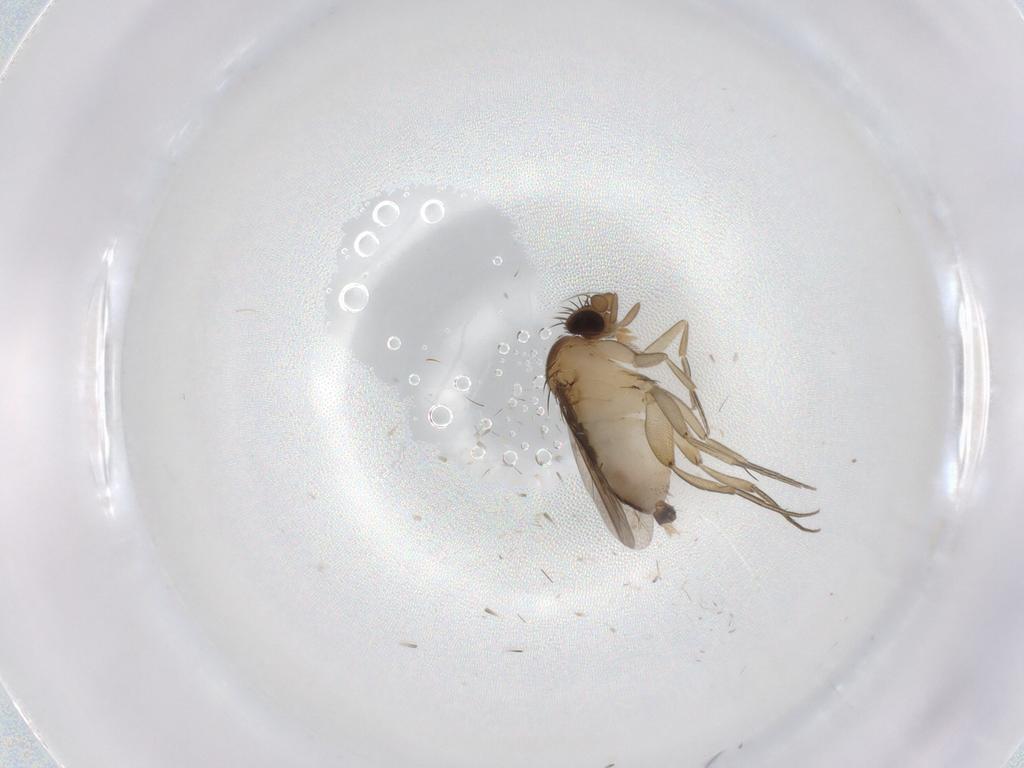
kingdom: Animalia
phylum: Arthropoda
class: Insecta
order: Diptera
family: Phoridae
